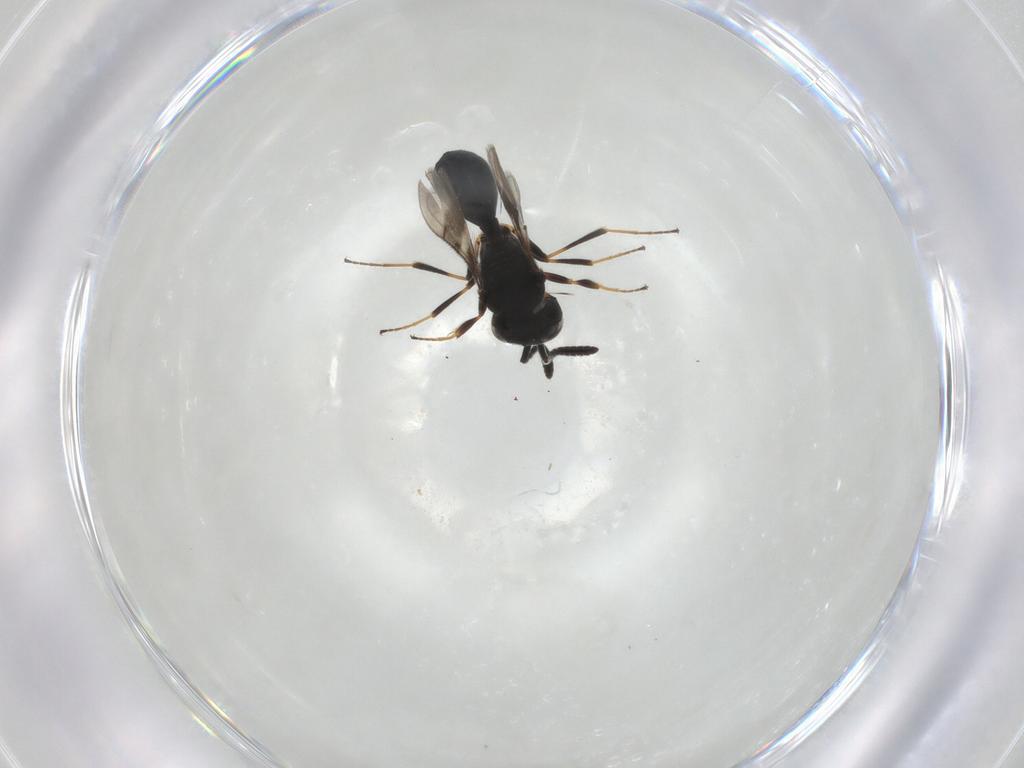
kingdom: Animalia
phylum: Arthropoda
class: Insecta
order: Hymenoptera
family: Scelionidae
